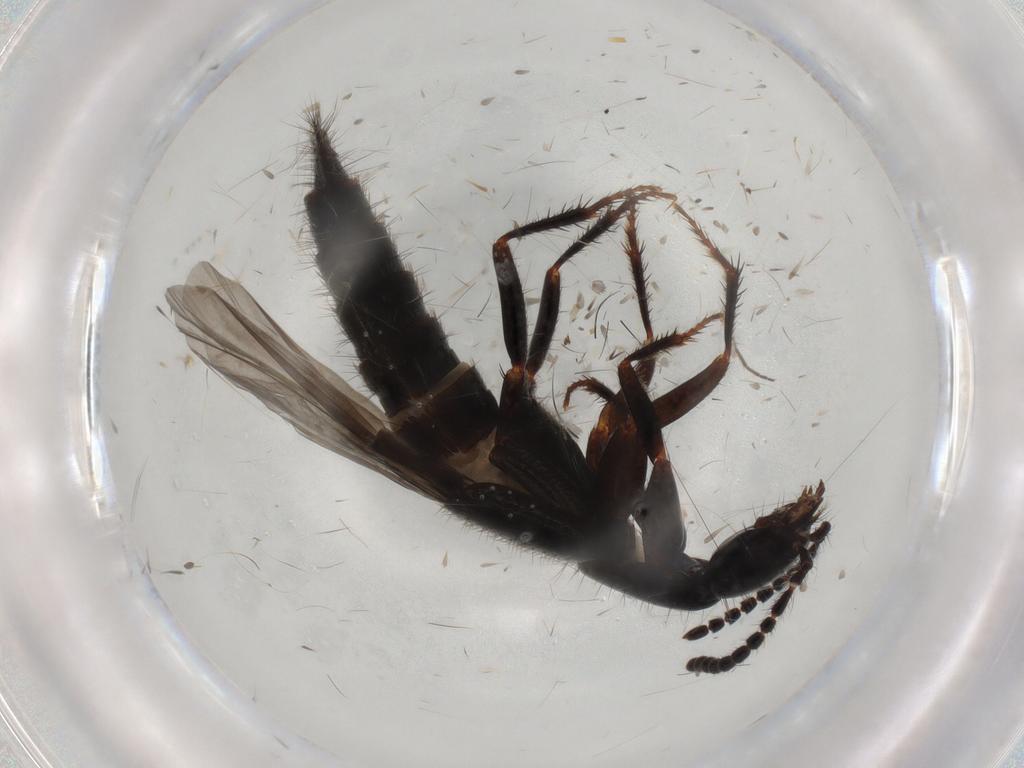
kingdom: Animalia
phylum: Arthropoda
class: Insecta
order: Coleoptera
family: Staphylinidae
